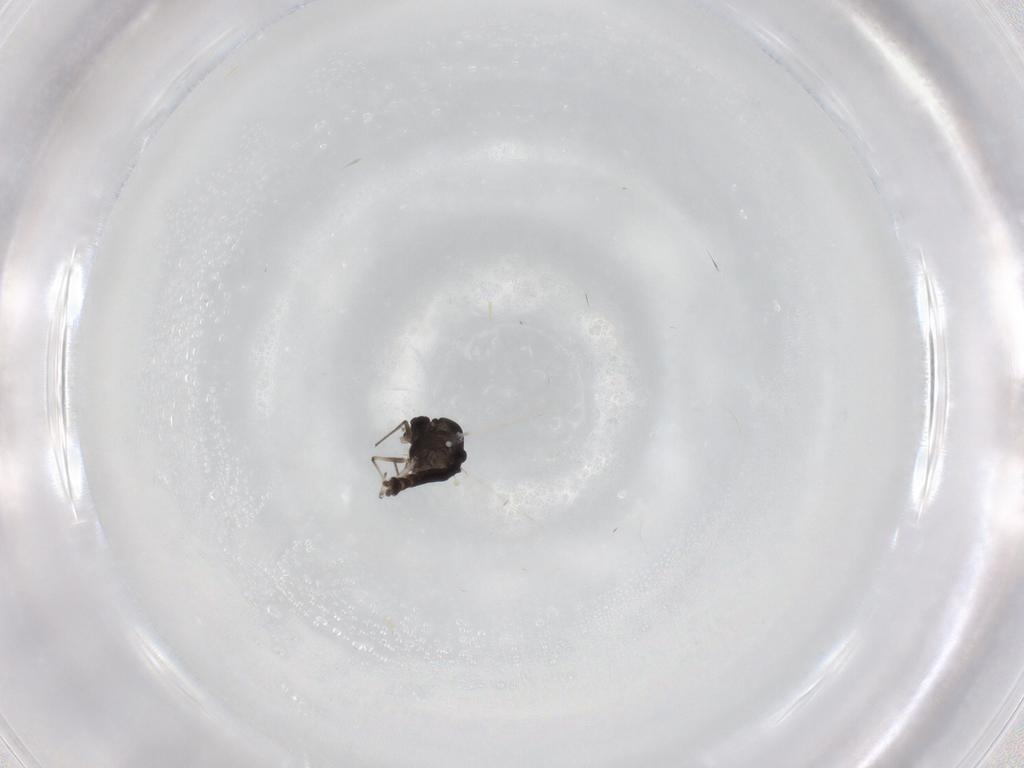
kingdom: Animalia
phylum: Arthropoda
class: Insecta
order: Diptera
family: Chironomidae
